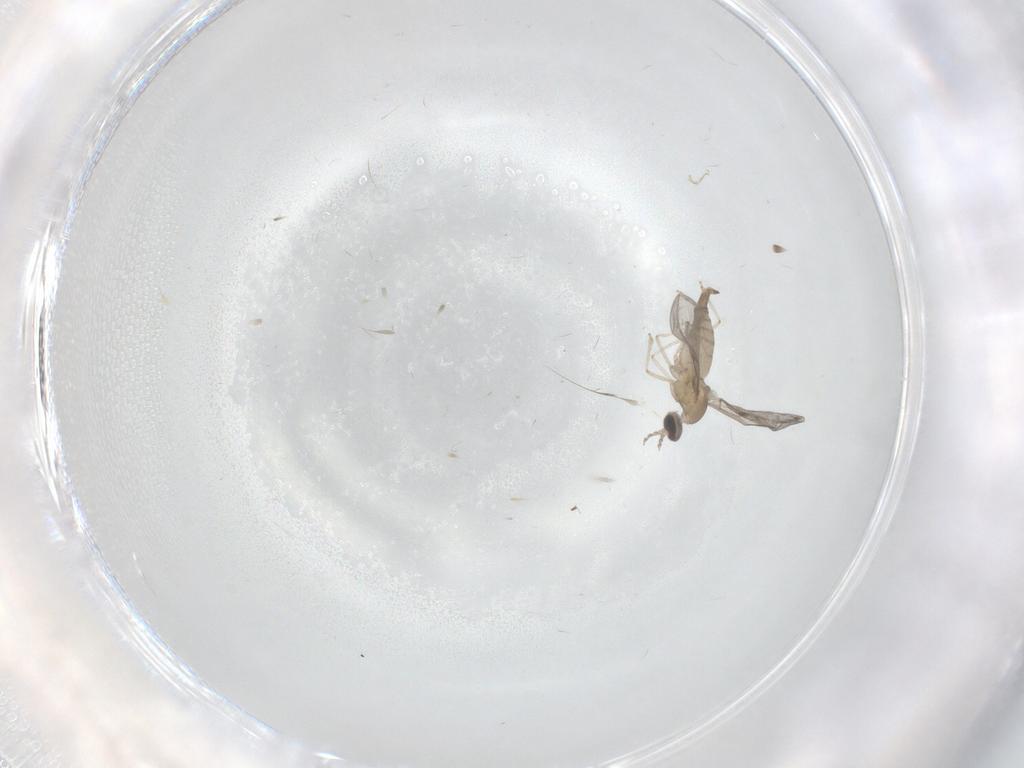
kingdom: Animalia
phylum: Arthropoda
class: Insecta
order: Diptera
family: Cecidomyiidae
